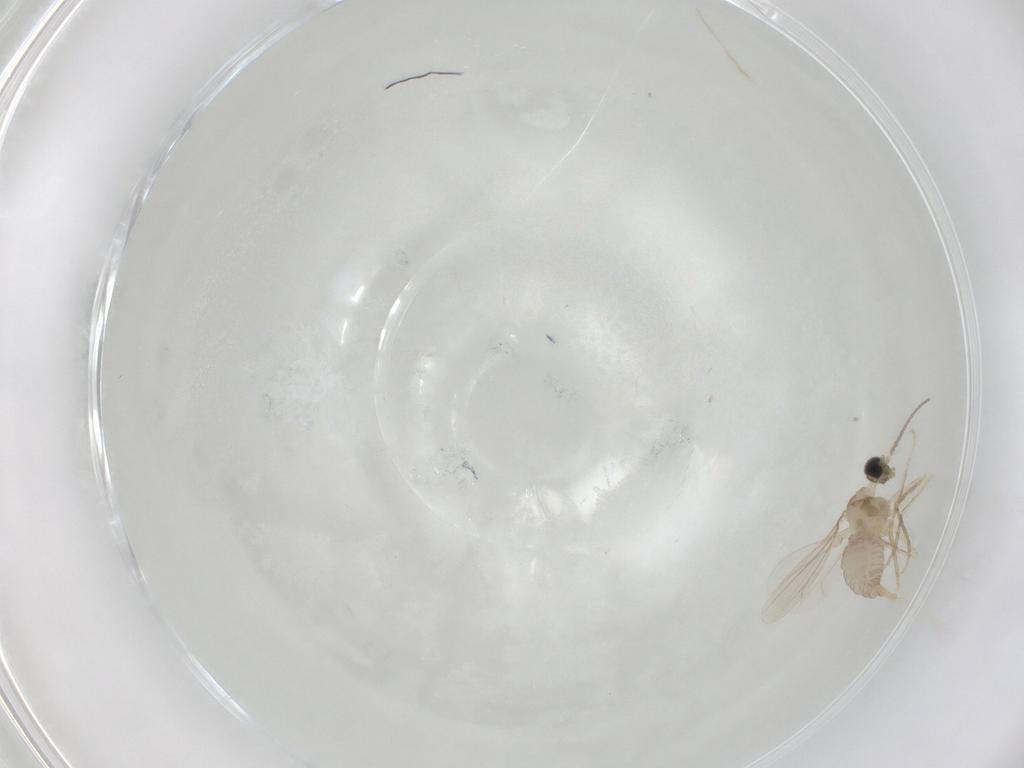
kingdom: Animalia
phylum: Arthropoda
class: Insecta
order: Diptera
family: Cecidomyiidae
